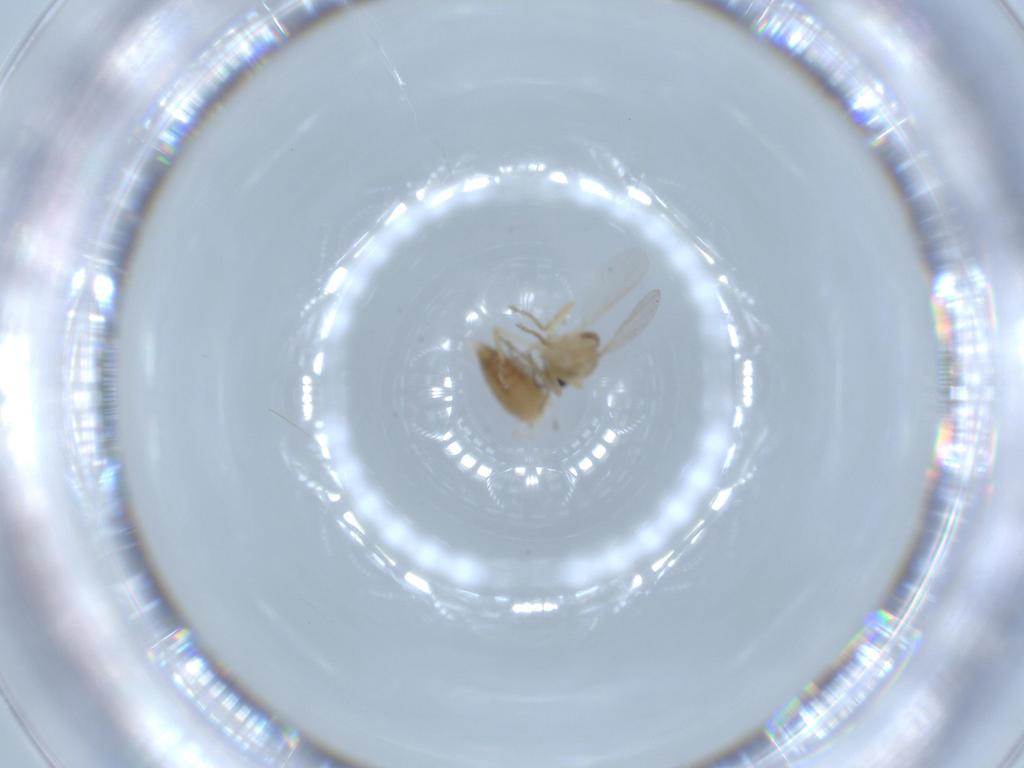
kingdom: Animalia
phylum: Arthropoda
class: Insecta
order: Diptera
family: Ceratopogonidae
